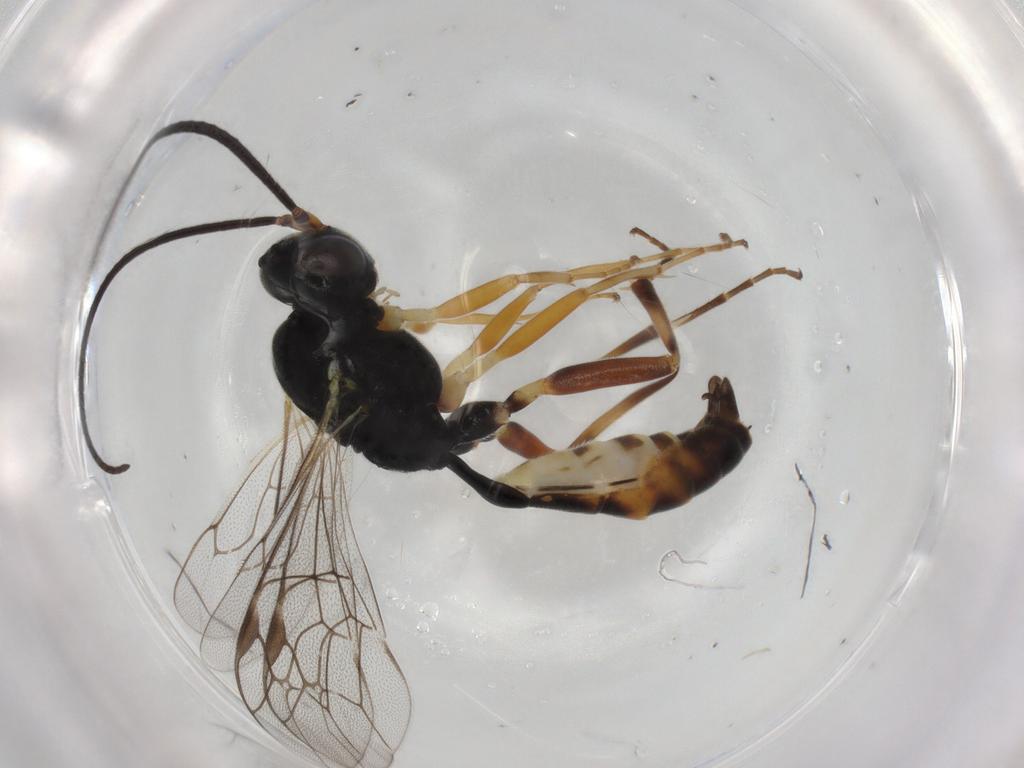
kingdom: Animalia
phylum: Arthropoda
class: Insecta
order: Hymenoptera
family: Ichneumonidae
